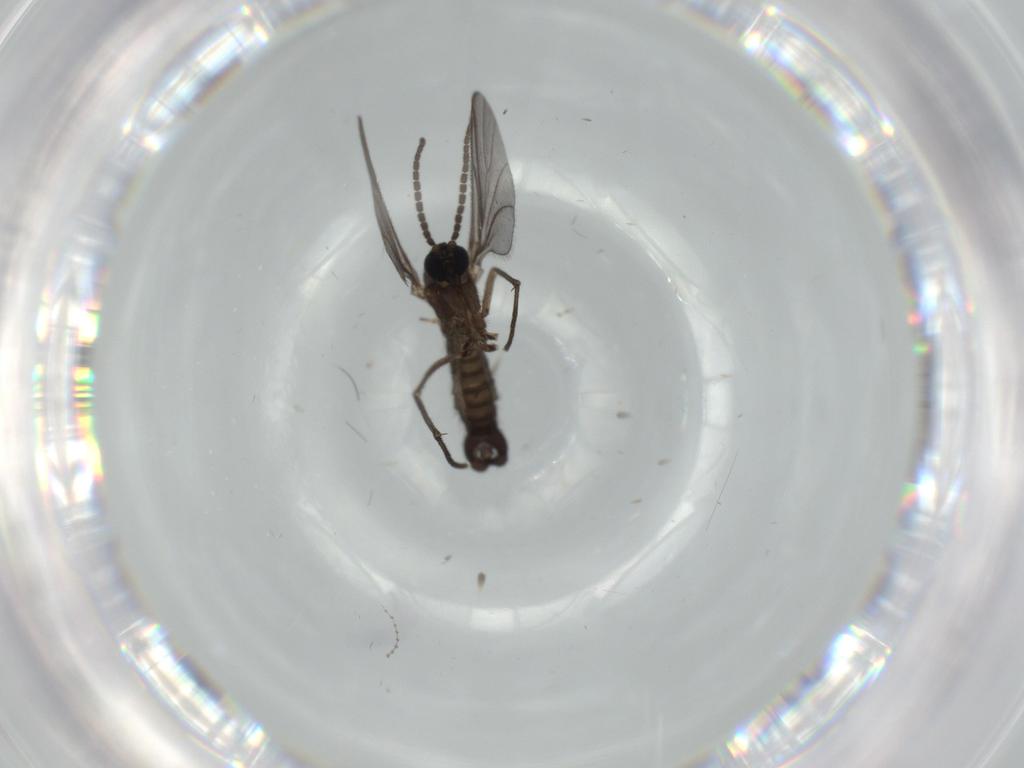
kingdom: Animalia
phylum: Arthropoda
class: Insecta
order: Diptera
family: Sciaridae
